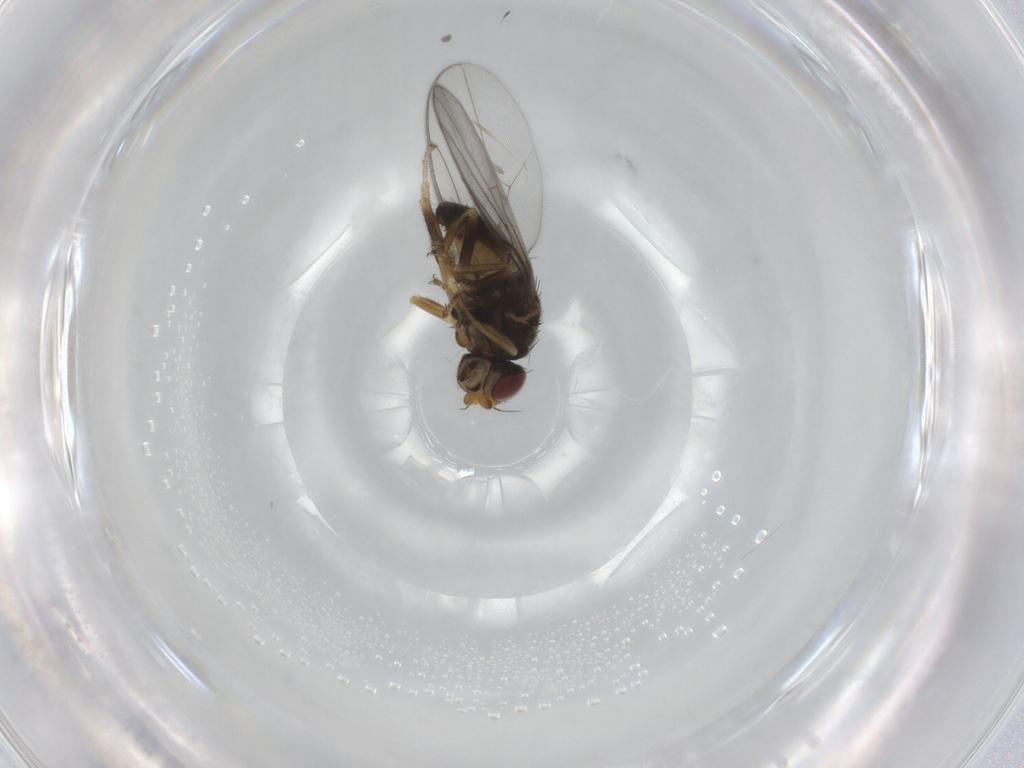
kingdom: Animalia
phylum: Arthropoda
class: Insecta
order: Diptera
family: Chloropidae
